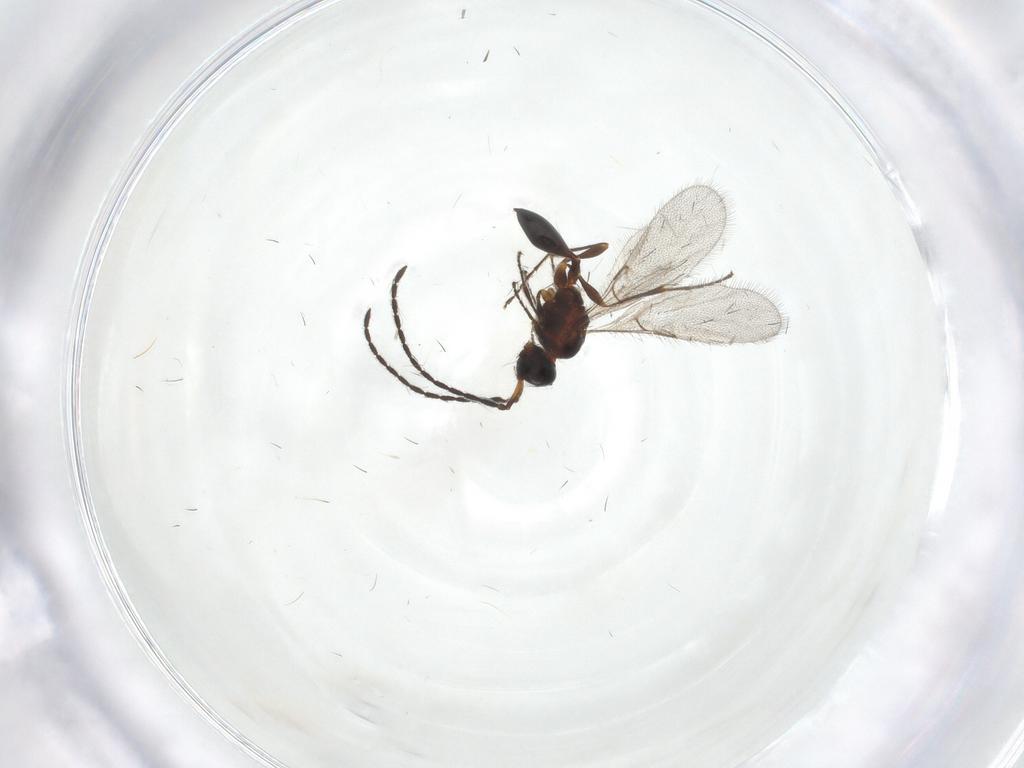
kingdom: Animalia
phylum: Arthropoda
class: Insecta
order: Hymenoptera
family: Diapriidae
